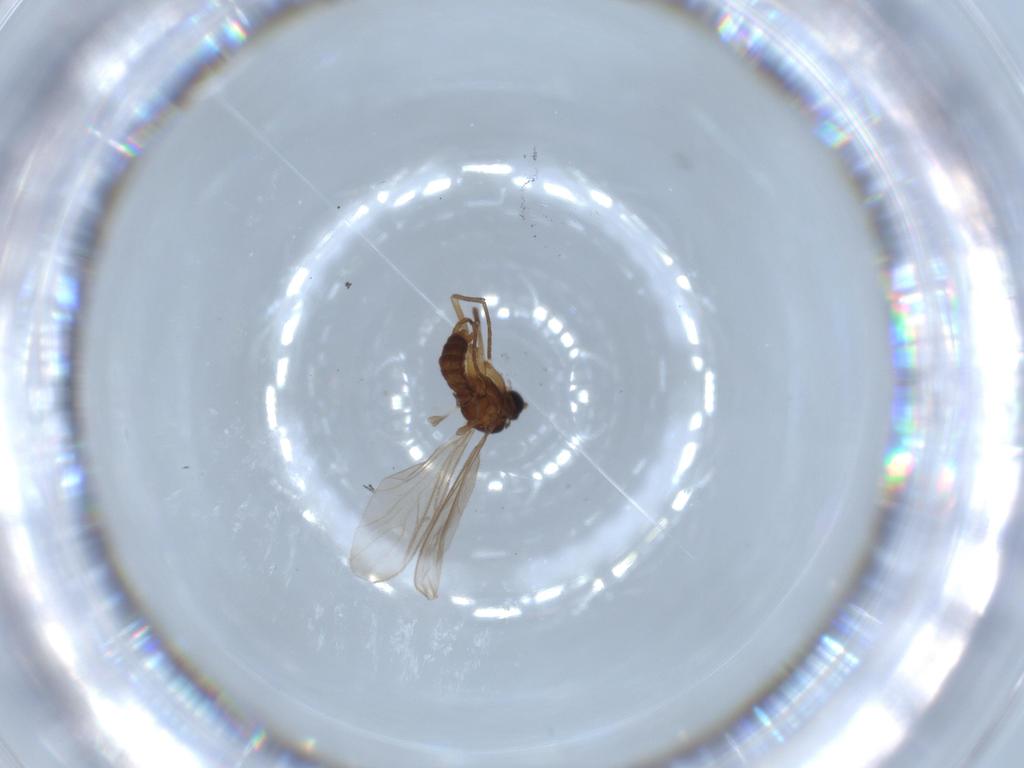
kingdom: Animalia
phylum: Arthropoda
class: Insecta
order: Diptera
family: Sciaridae
